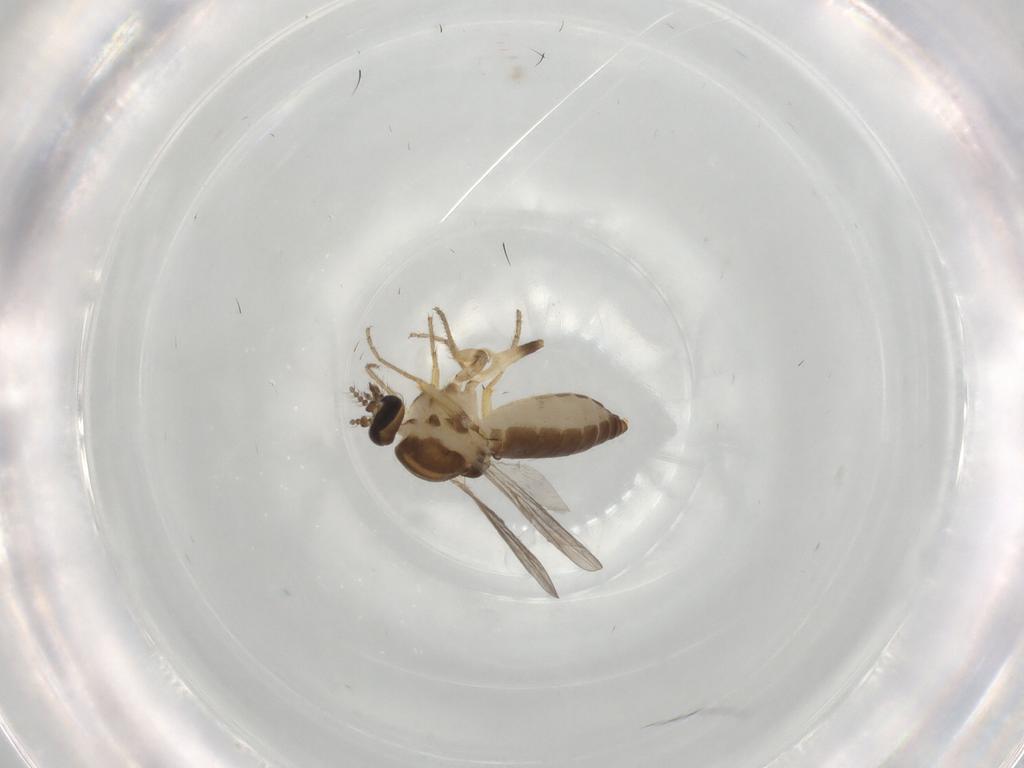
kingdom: Animalia
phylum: Arthropoda
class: Insecta
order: Diptera
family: Ceratopogonidae
